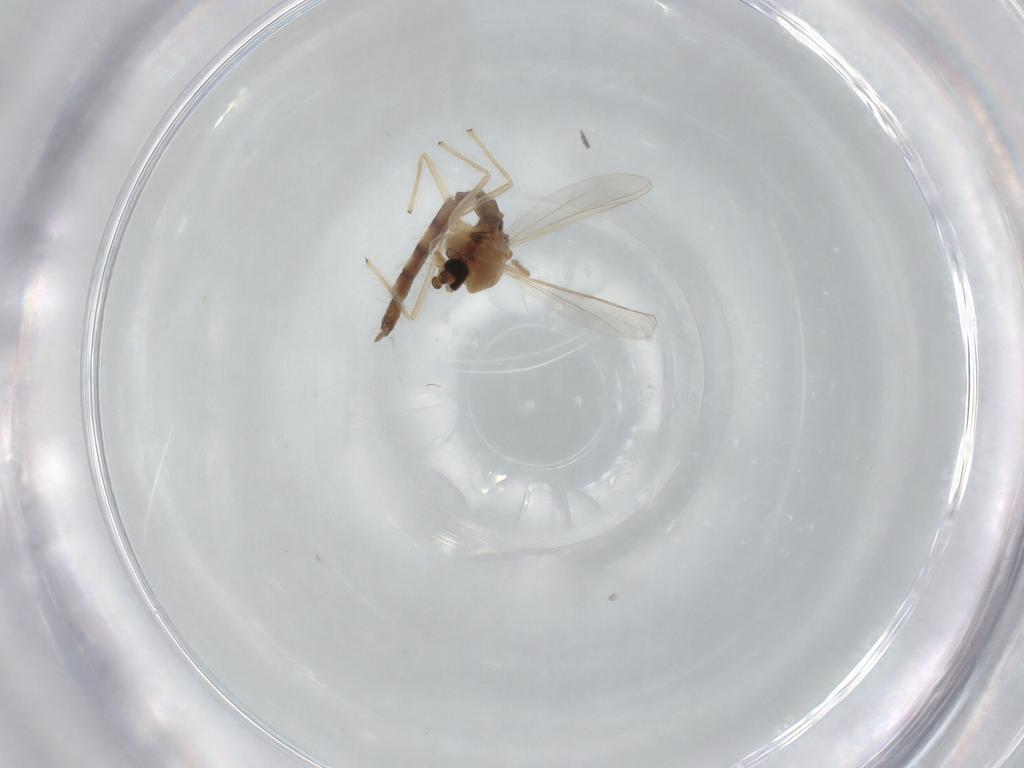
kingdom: Animalia
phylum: Arthropoda
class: Insecta
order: Diptera
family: Chironomidae
